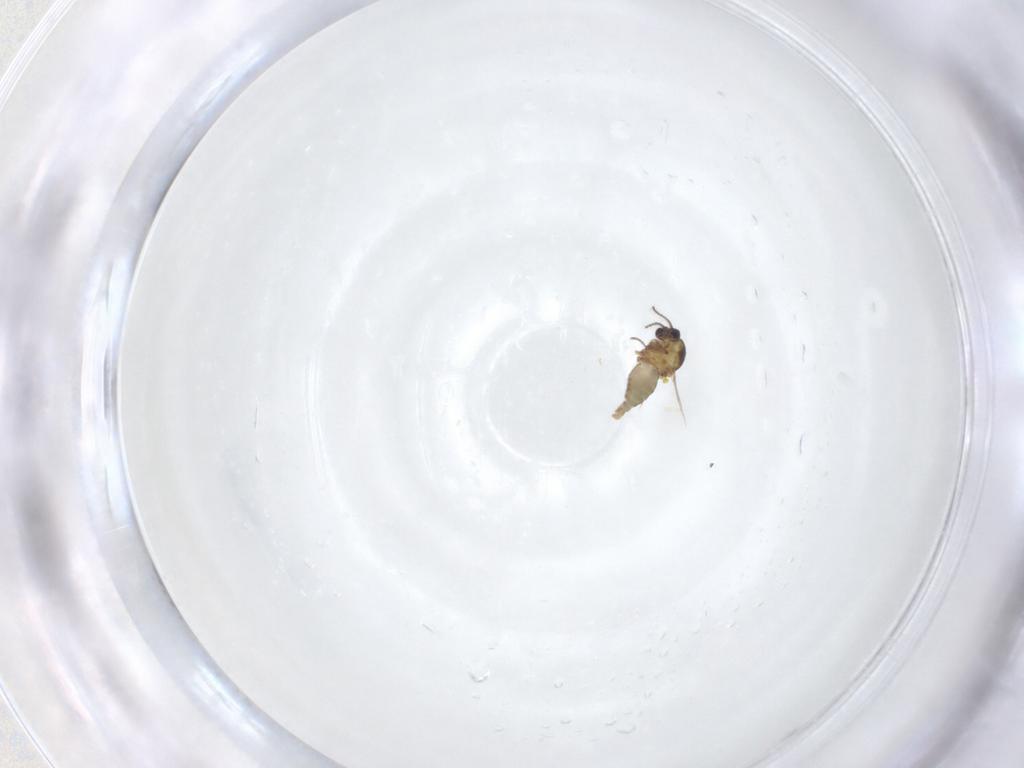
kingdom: Animalia
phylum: Arthropoda
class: Insecta
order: Diptera
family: Ceratopogonidae
